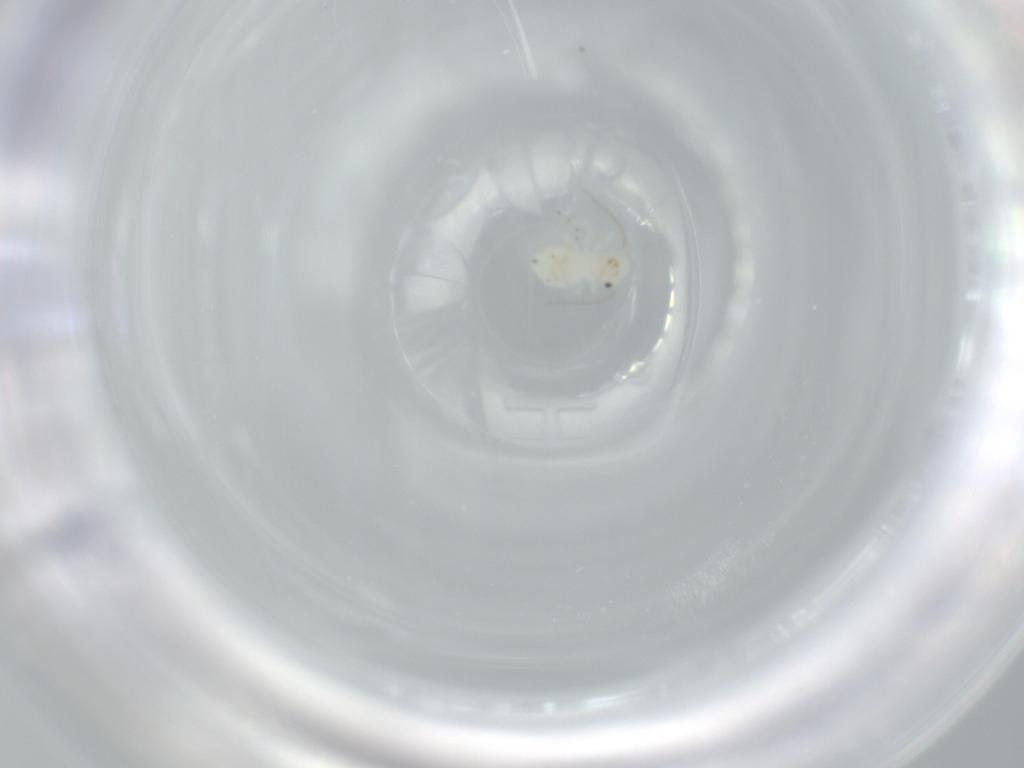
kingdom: Animalia
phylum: Arthropoda
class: Insecta
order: Psocodea
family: Caeciliusidae
